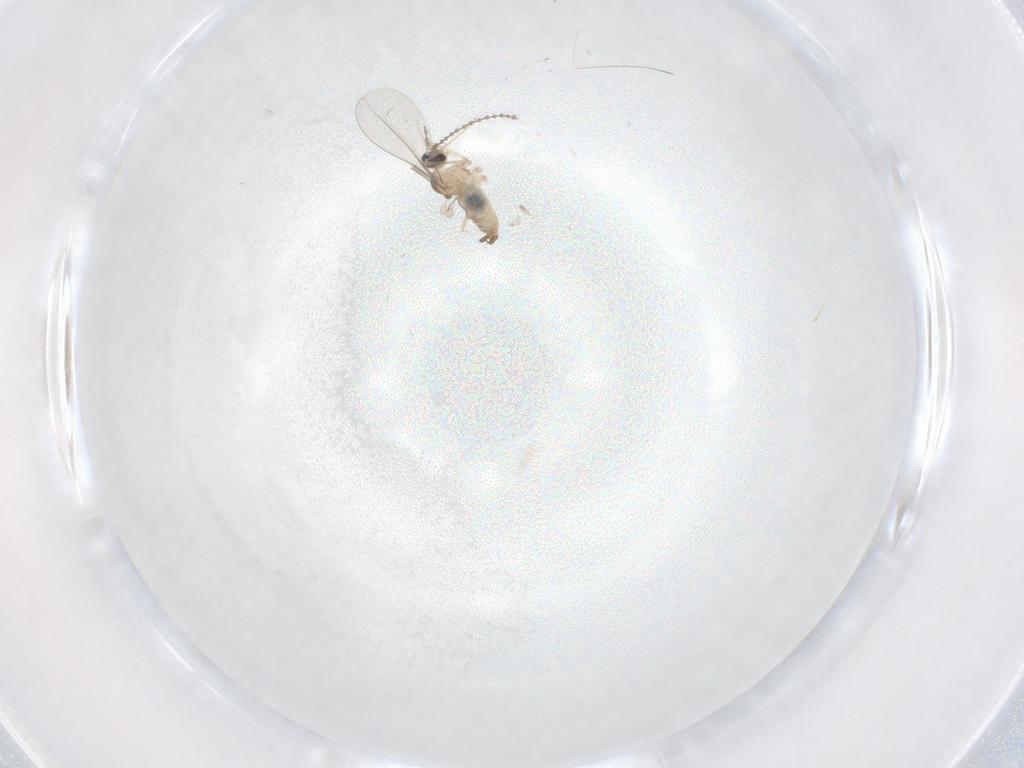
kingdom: Animalia
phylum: Arthropoda
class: Insecta
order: Diptera
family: Cecidomyiidae
